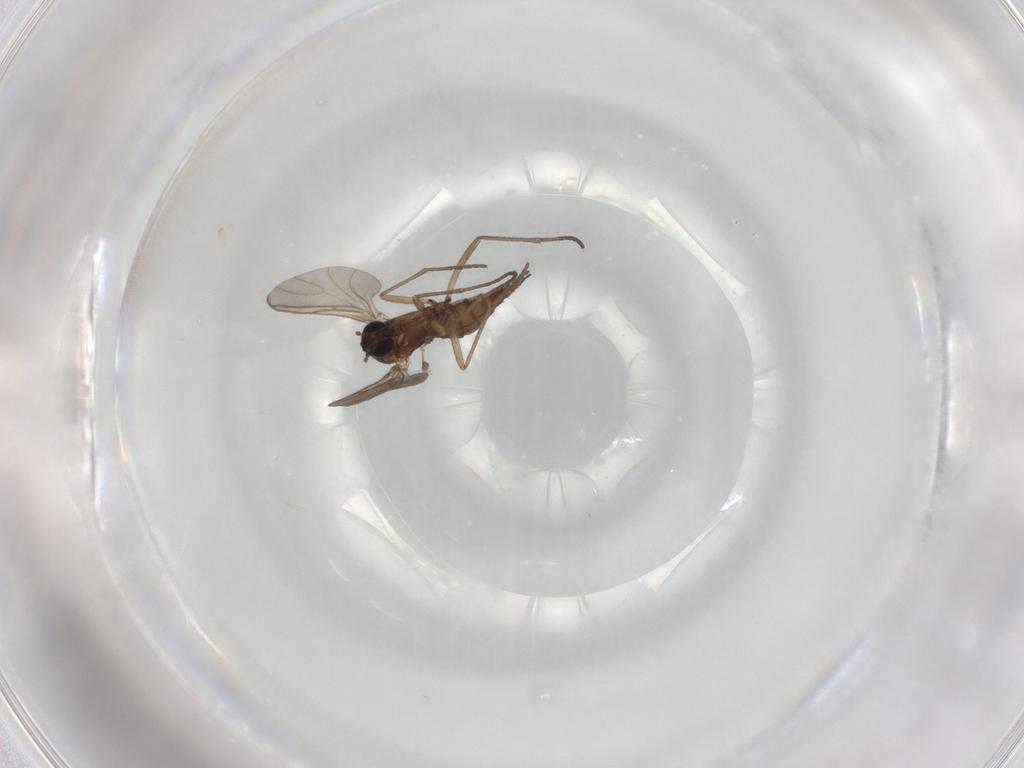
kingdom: Animalia
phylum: Arthropoda
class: Insecta
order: Diptera
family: Sciaridae
